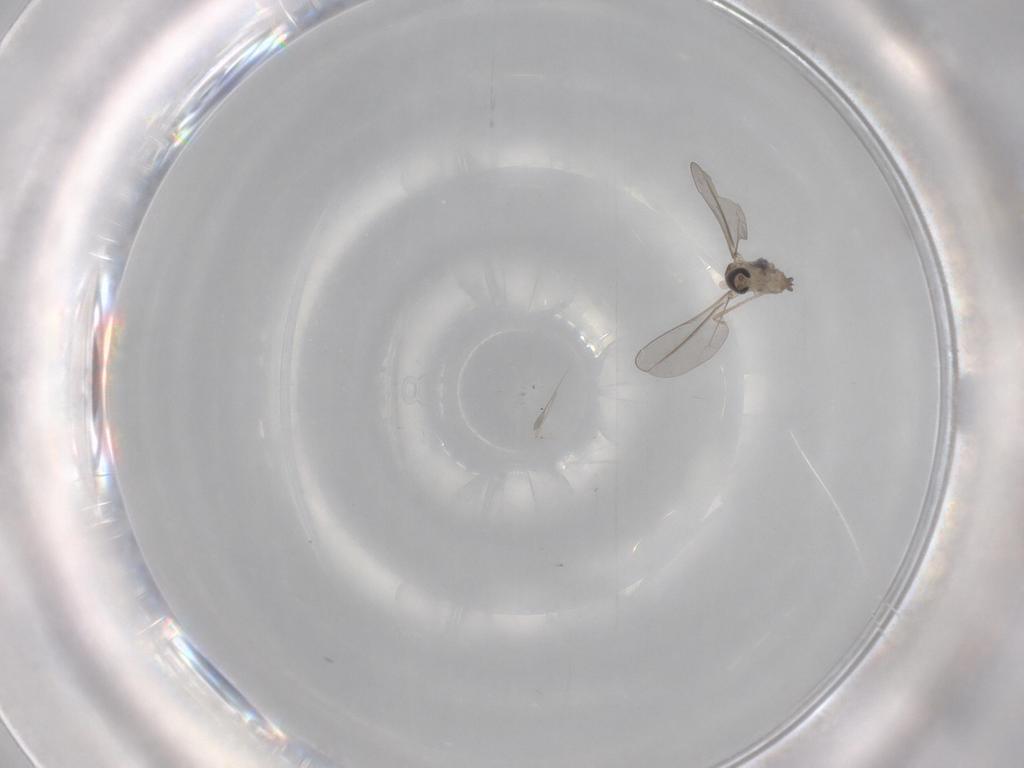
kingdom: Animalia
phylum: Arthropoda
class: Insecta
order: Diptera
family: Cecidomyiidae
